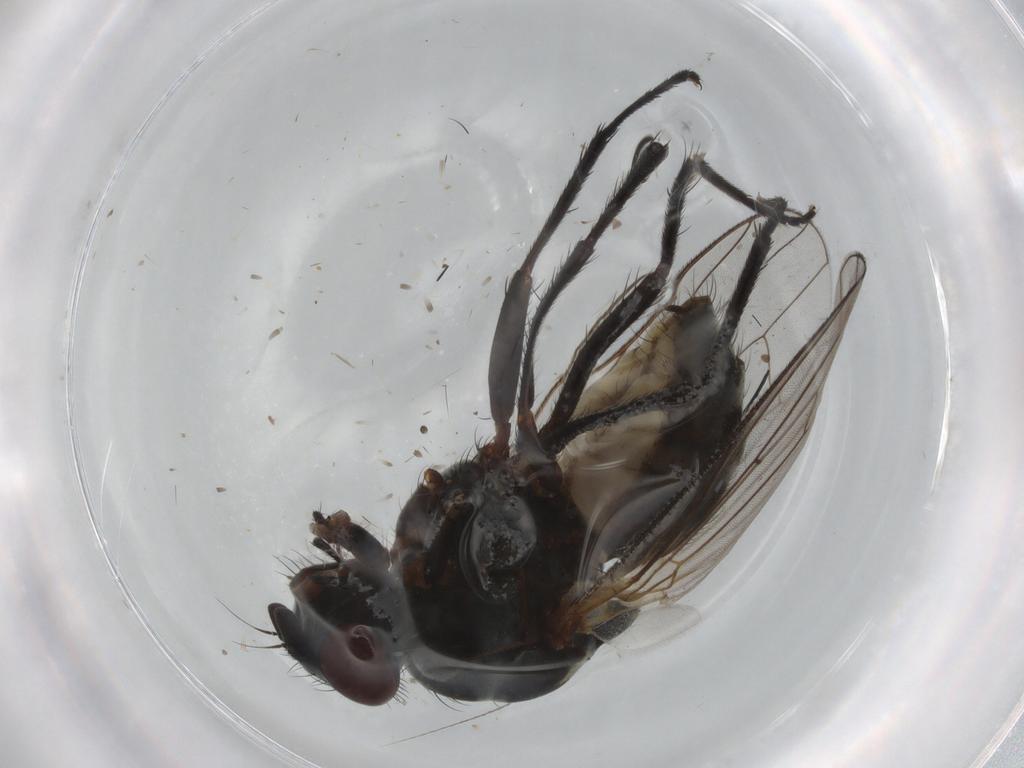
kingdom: Animalia
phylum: Arthropoda
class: Insecta
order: Diptera
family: Anthomyiidae
